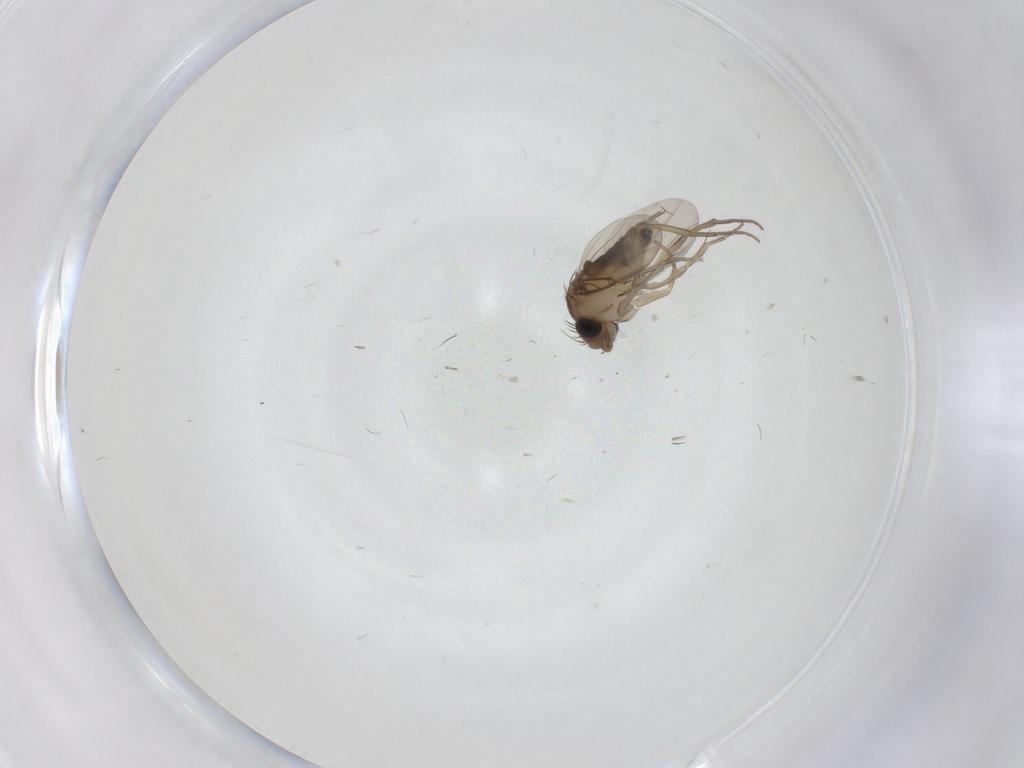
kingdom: Animalia
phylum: Arthropoda
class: Insecta
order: Diptera
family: Phoridae
